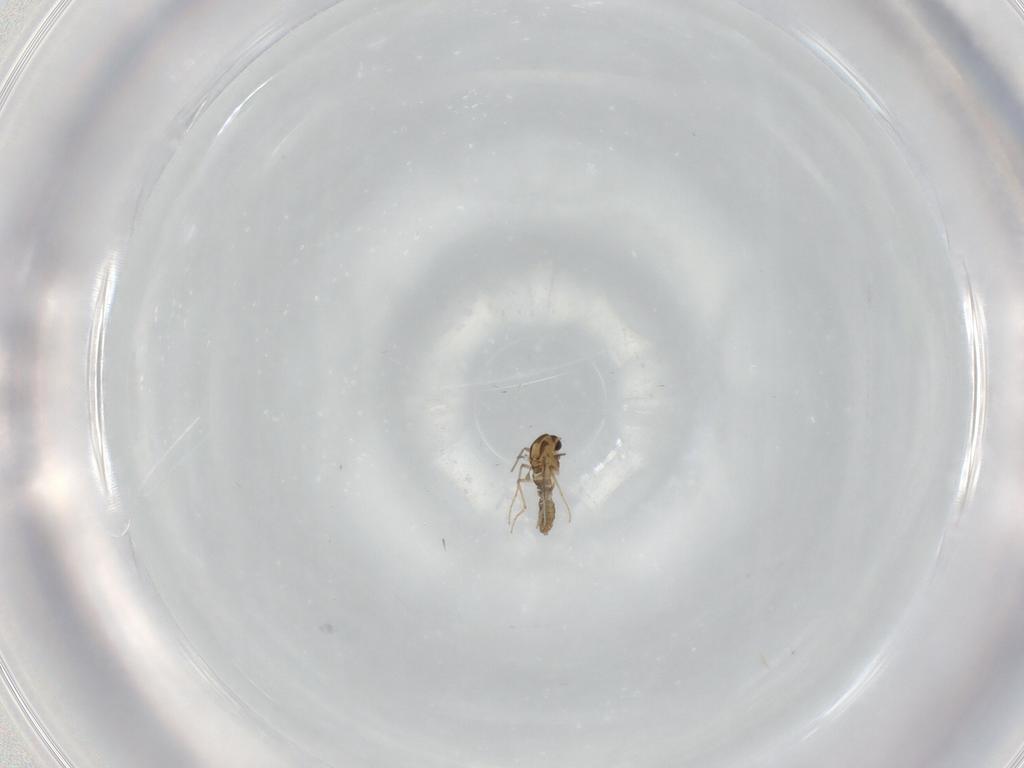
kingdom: Animalia
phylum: Arthropoda
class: Insecta
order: Diptera
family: Chironomidae
